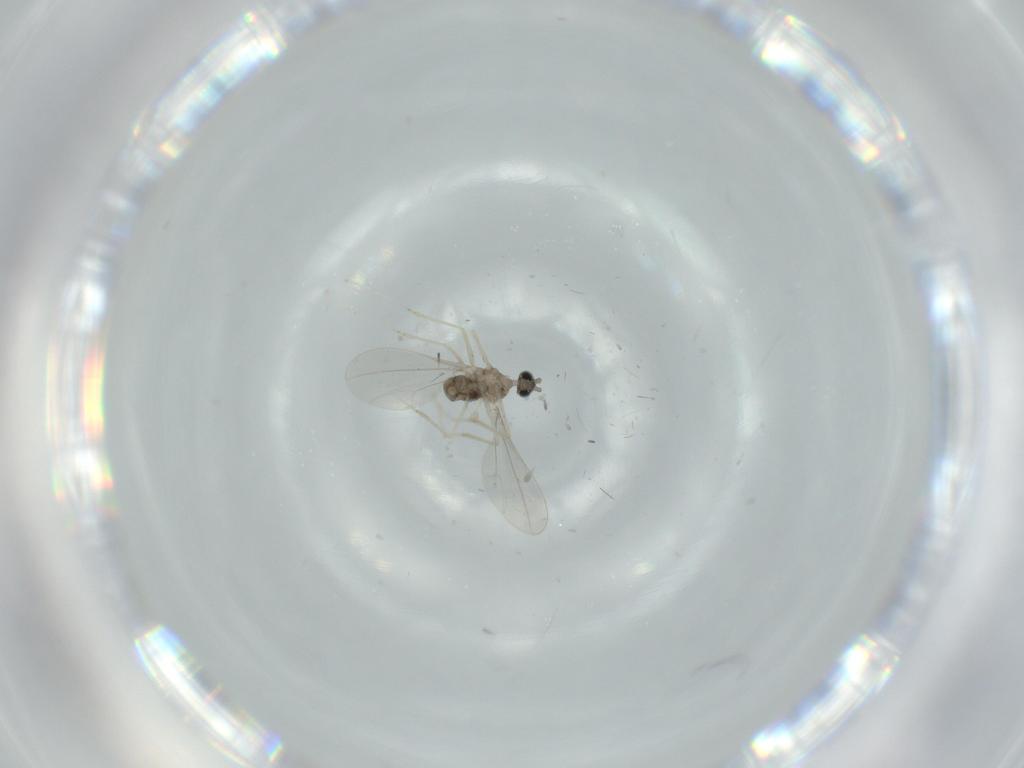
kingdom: Animalia
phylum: Arthropoda
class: Insecta
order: Diptera
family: Cecidomyiidae
